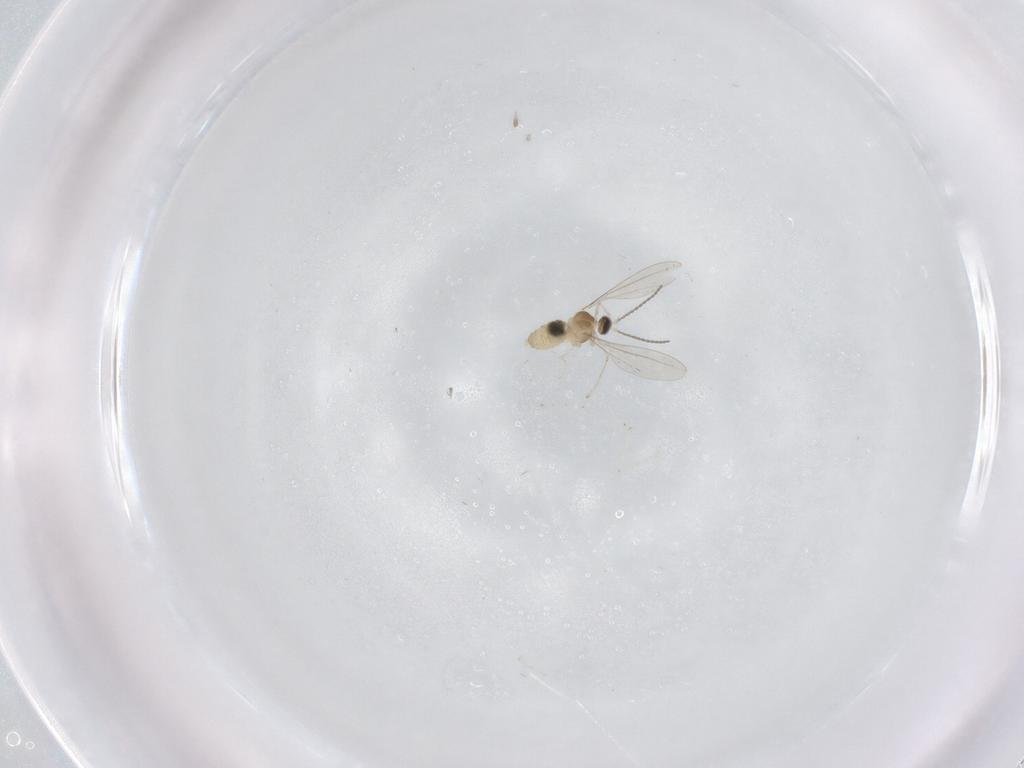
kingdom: Animalia
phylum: Arthropoda
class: Insecta
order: Diptera
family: Cecidomyiidae
